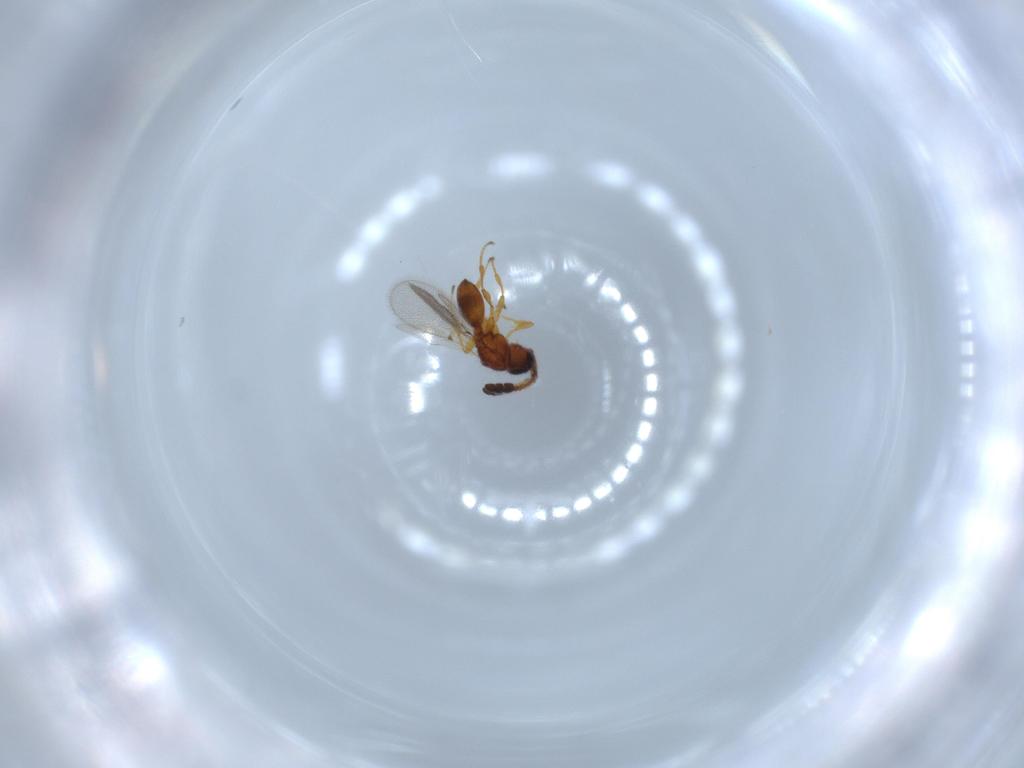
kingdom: Animalia
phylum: Arthropoda
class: Insecta
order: Hymenoptera
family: Diapriidae
